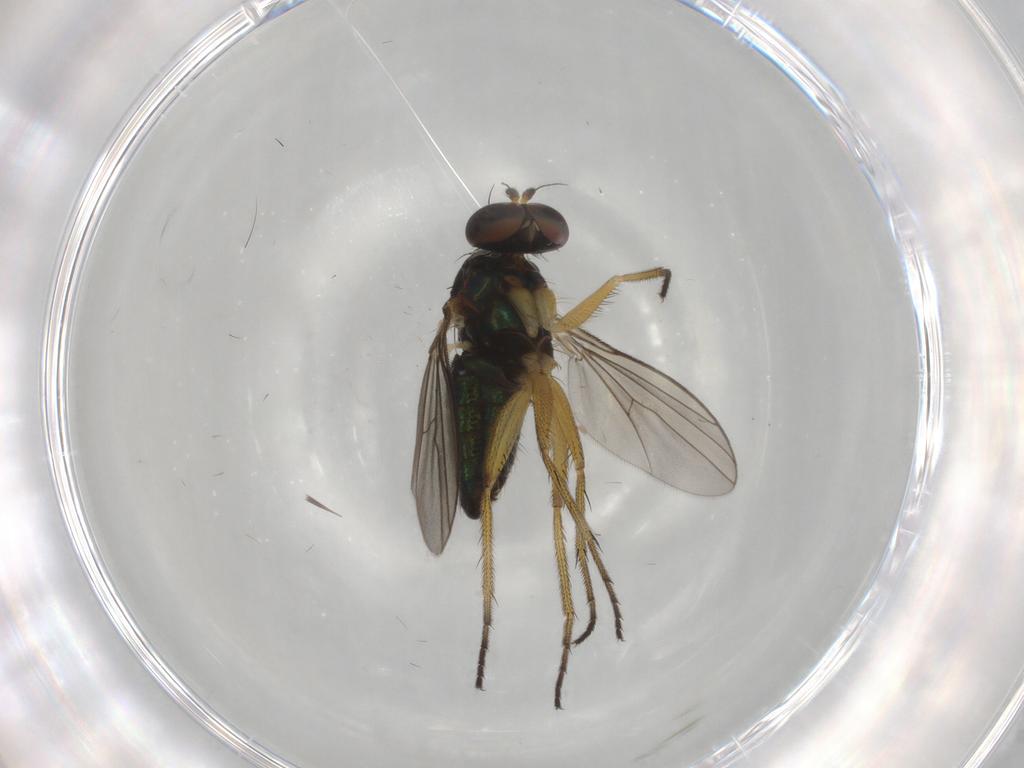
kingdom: Animalia
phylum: Arthropoda
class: Insecta
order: Diptera
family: Dolichopodidae
